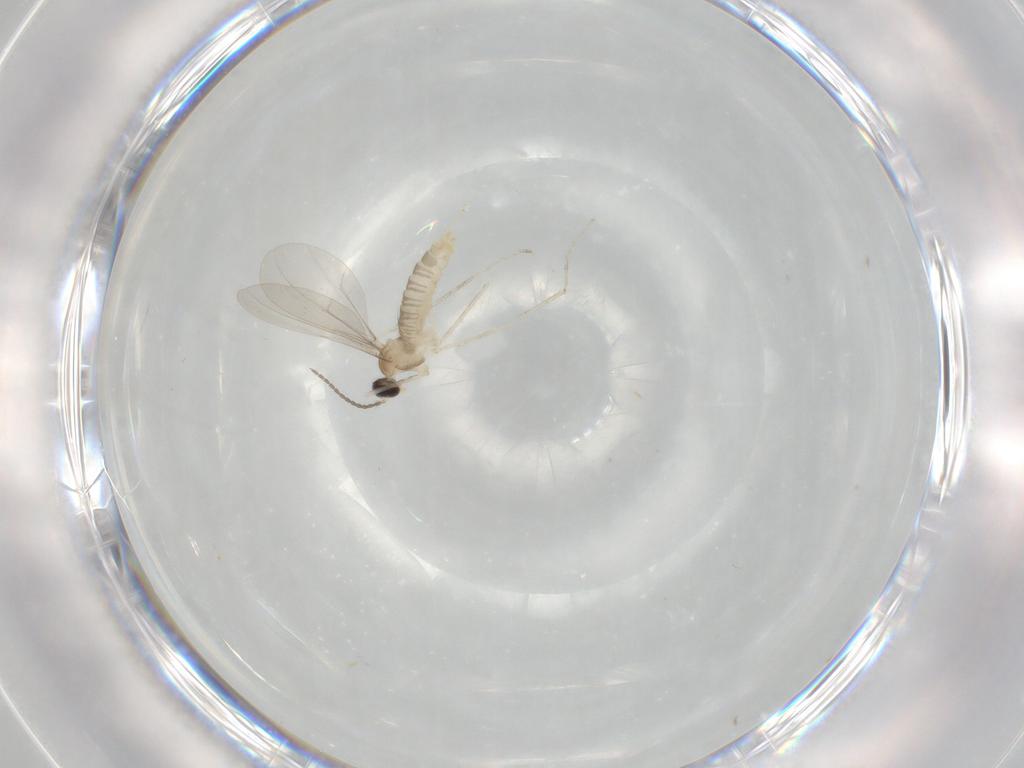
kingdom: Animalia
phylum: Arthropoda
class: Insecta
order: Diptera
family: Cecidomyiidae
